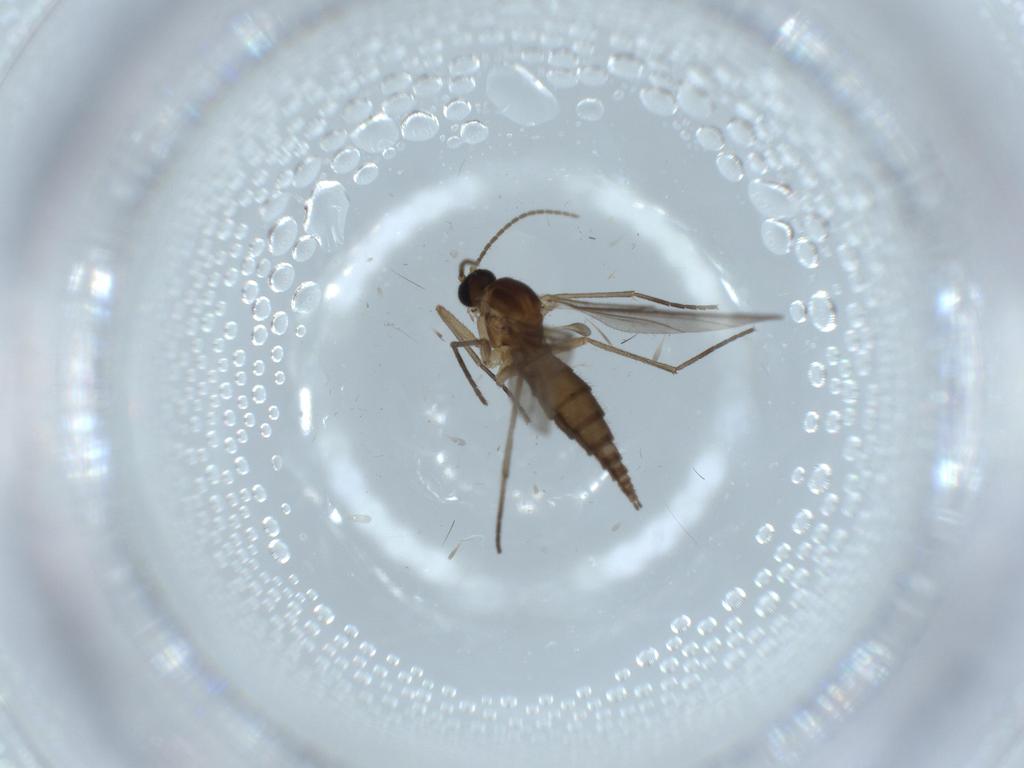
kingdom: Animalia
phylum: Arthropoda
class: Insecta
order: Diptera
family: Sciaridae
